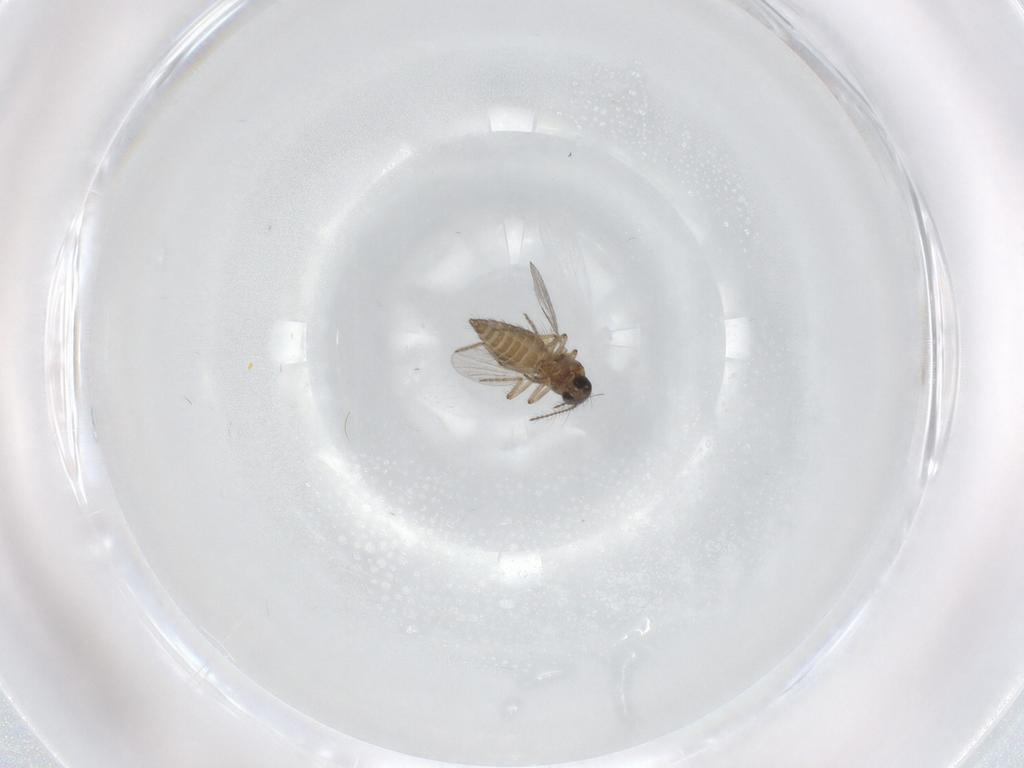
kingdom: Animalia
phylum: Arthropoda
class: Insecta
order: Diptera
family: Ceratopogonidae
